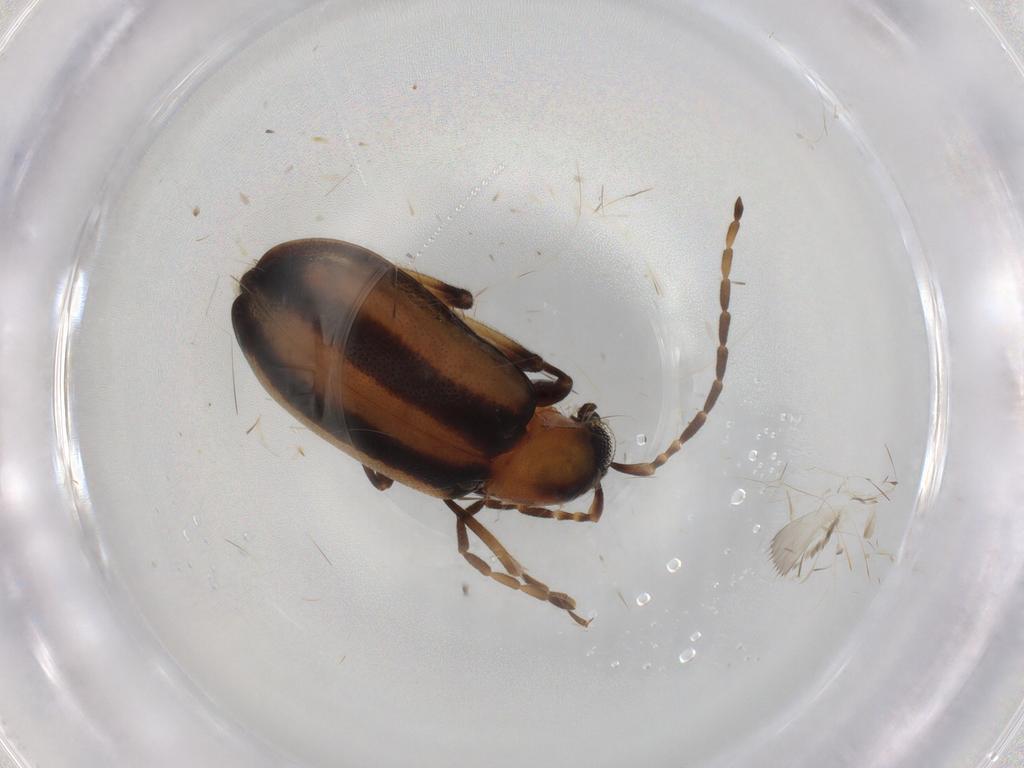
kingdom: Animalia
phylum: Arthropoda
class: Insecta
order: Coleoptera
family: Chrysomelidae
